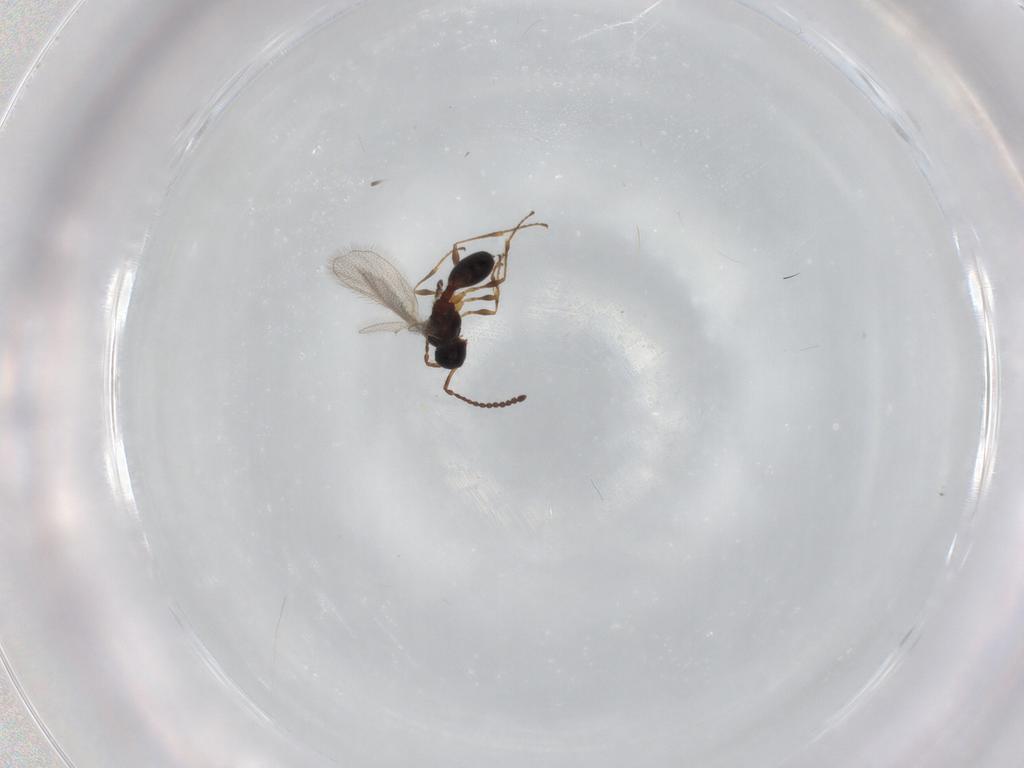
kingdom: Animalia
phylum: Arthropoda
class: Insecta
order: Hymenoptera
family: Diapriidae
